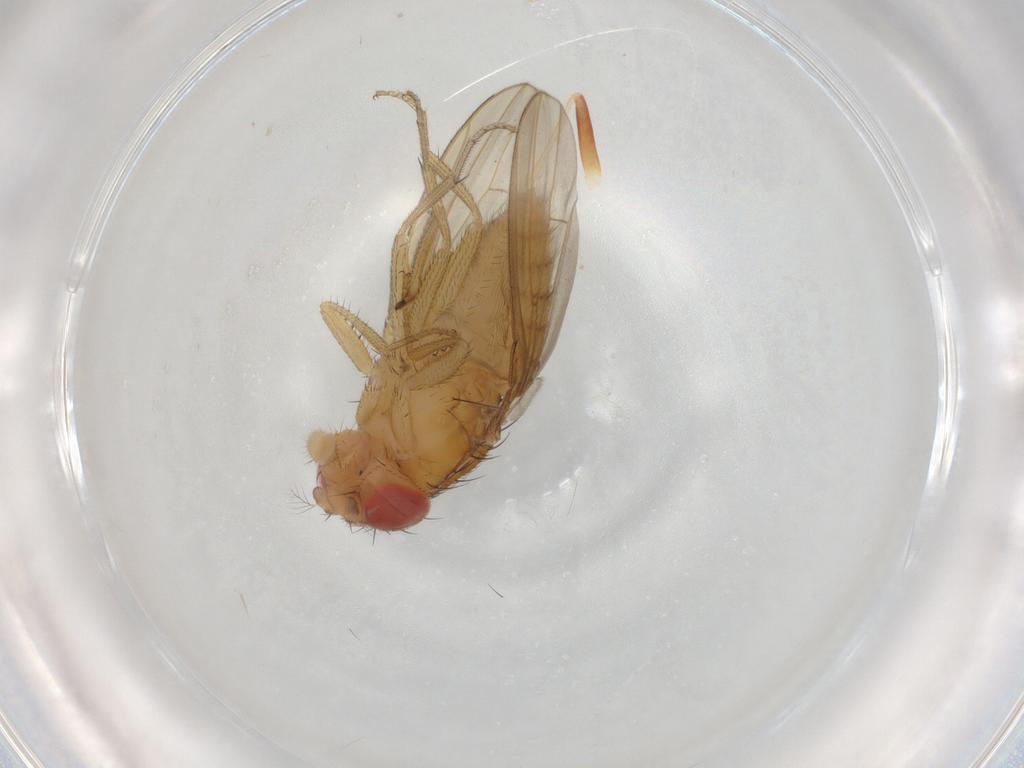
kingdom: Animalia
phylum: Arthropoda
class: Insecta
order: Diptera
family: Drosophilidae
